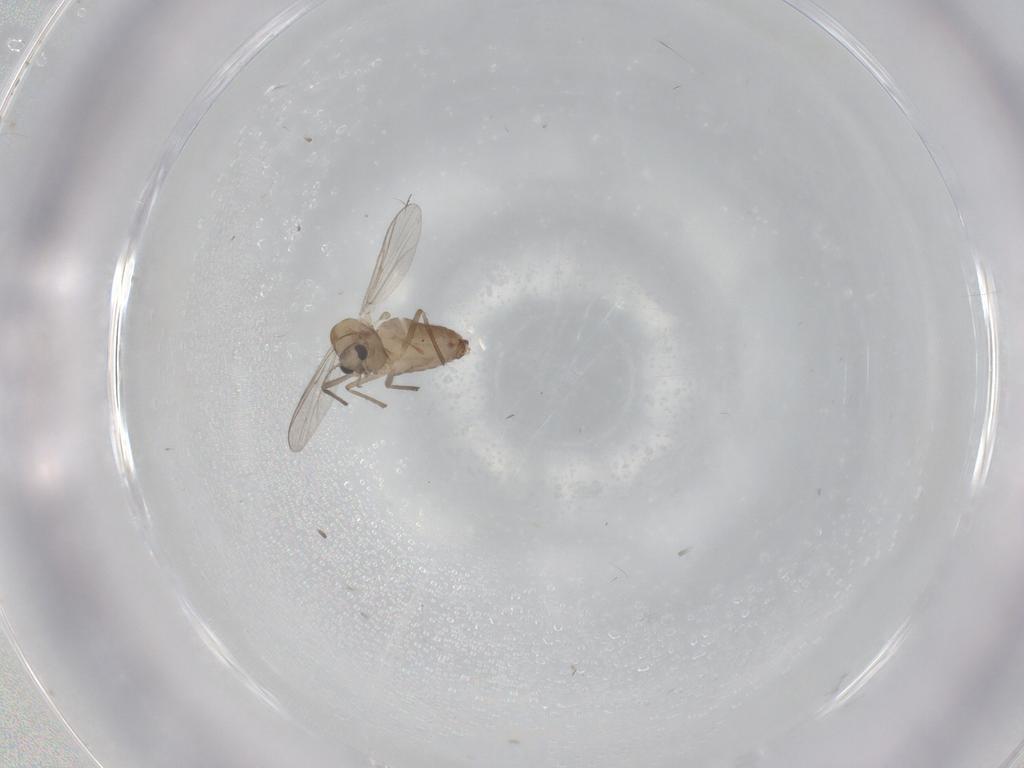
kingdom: Animalia
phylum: Arthropoda
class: Insecta
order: Diptera
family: Chironomidae
